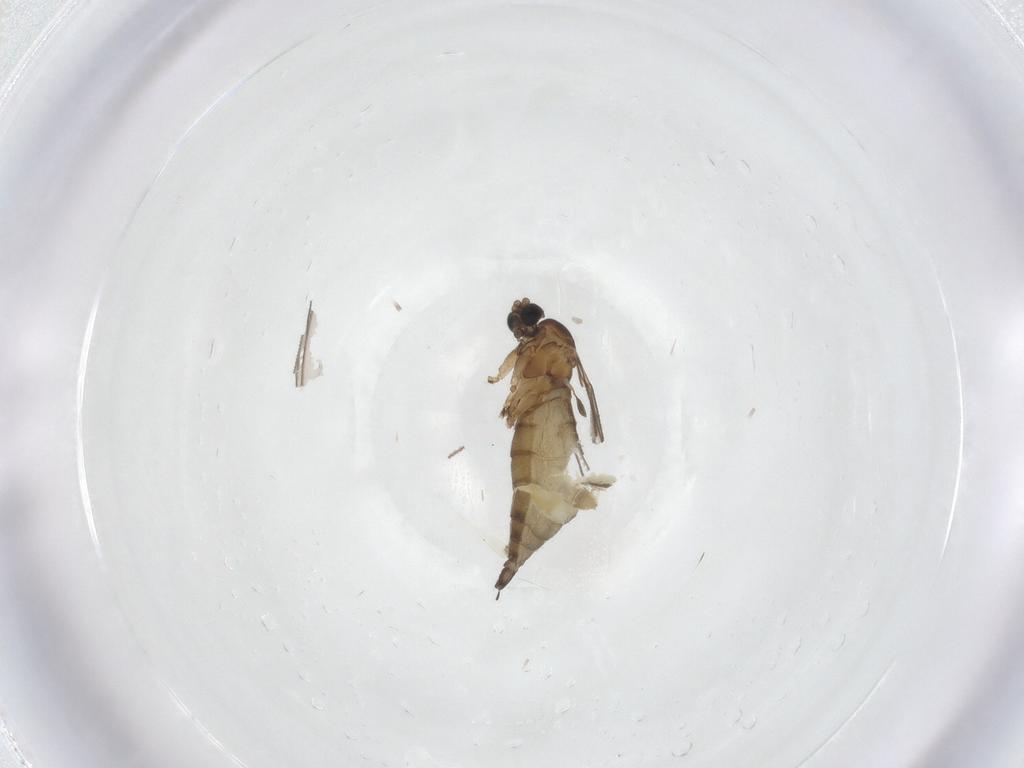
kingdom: Animalia
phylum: Arthropoda
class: Insecta
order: Diptera
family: Sciaridae
